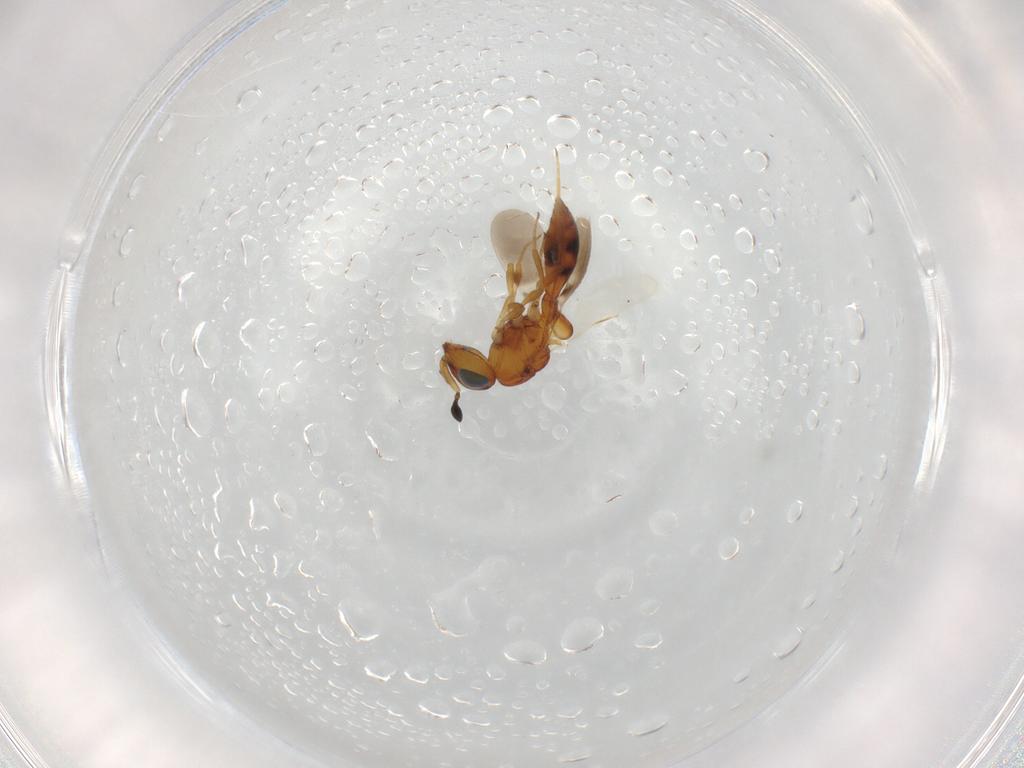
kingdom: Animalia
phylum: Arthropoda
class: Insecta
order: Hymenoptera
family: Scelionidae
